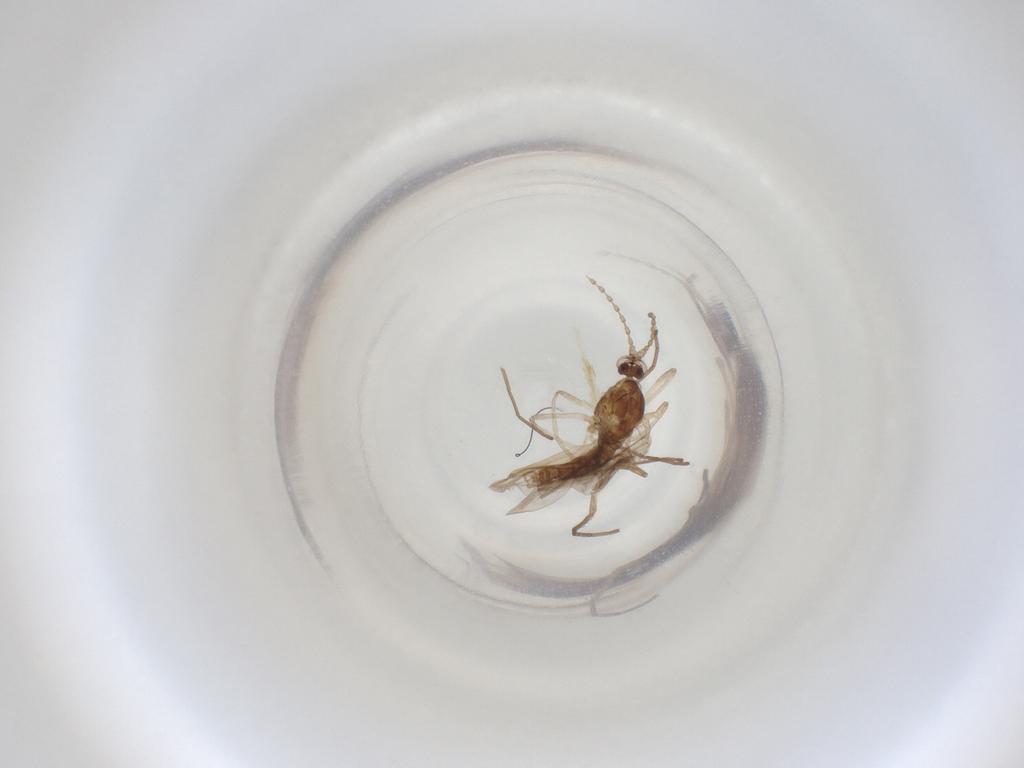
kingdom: Animalia
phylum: Arthropoda
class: Insecta
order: Diptera
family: Cecidomyiidae
